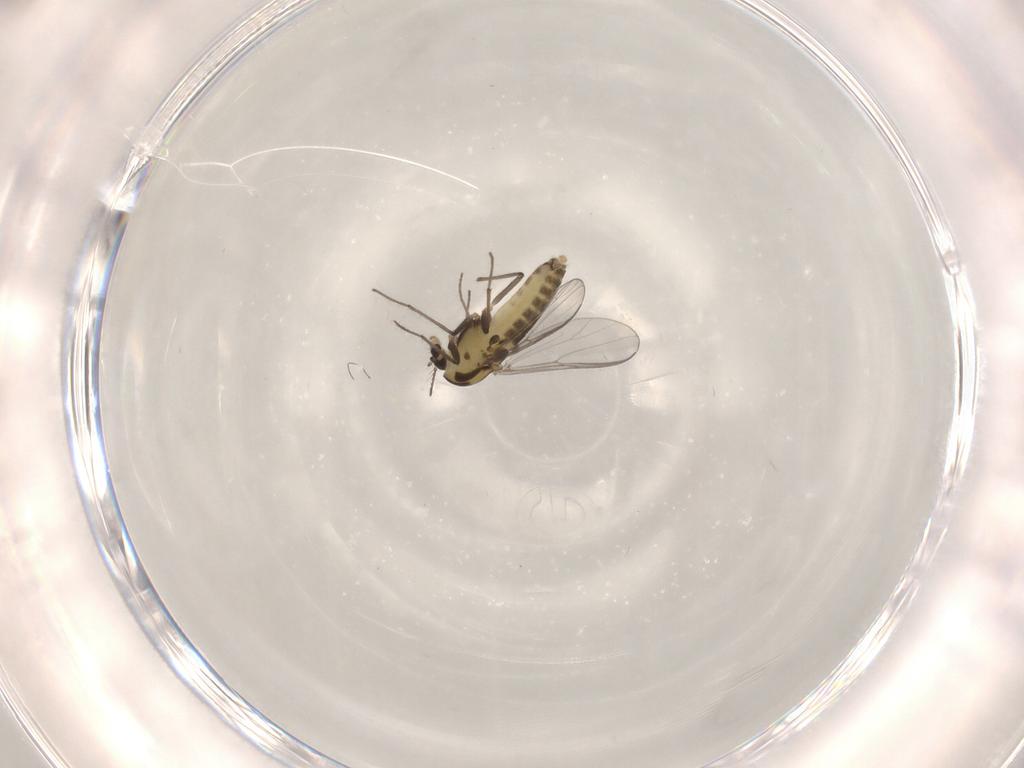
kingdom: Animalia
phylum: Arthropoda
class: Insecta
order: Diptera
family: Chironomidae
